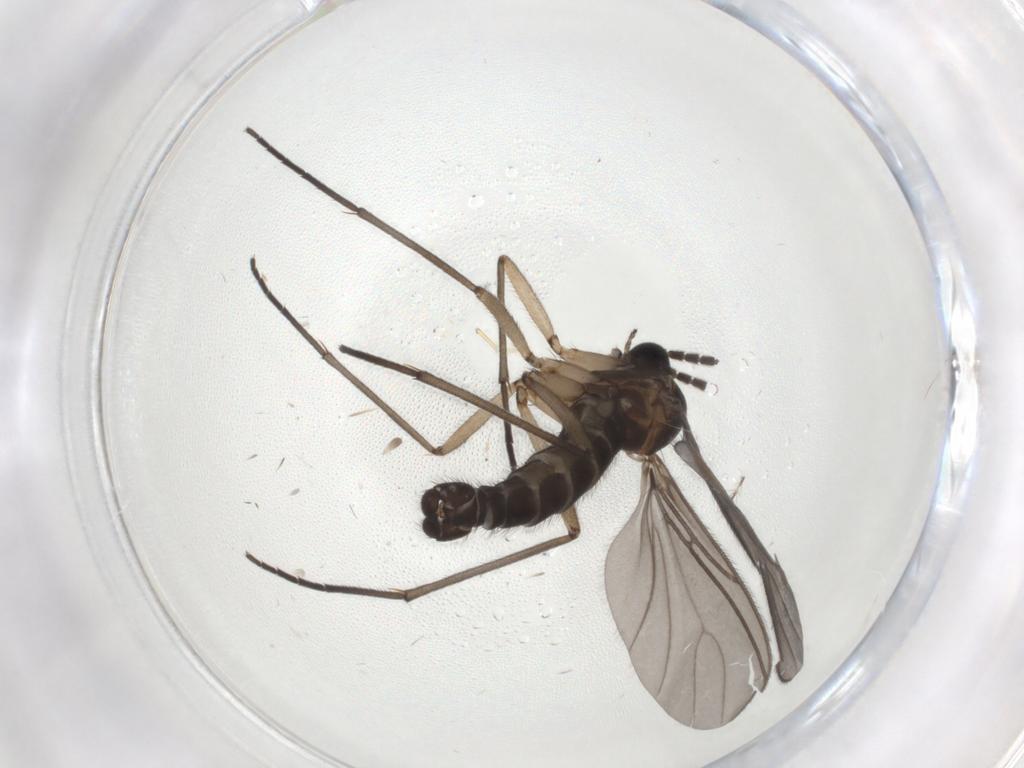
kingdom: Animalia
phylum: Arthropoda
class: Insecta
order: Diptera
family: Sciaridae
